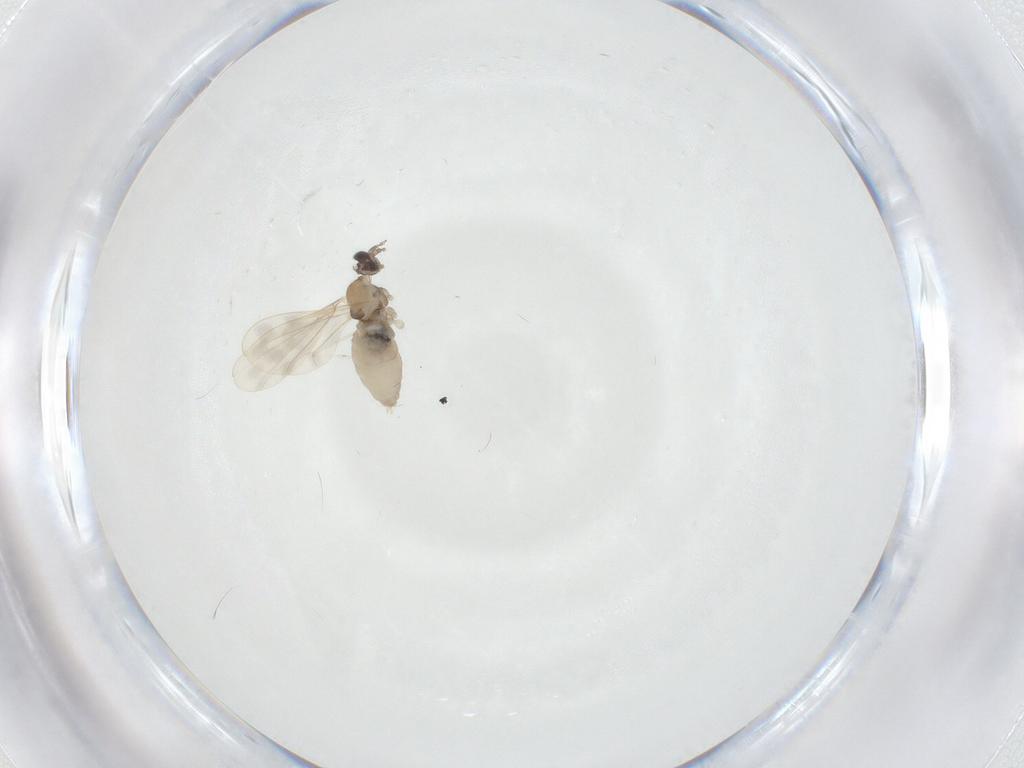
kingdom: Animalia
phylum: Arthropoda
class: Insecta
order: Diptera
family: Cecidomyiidae
